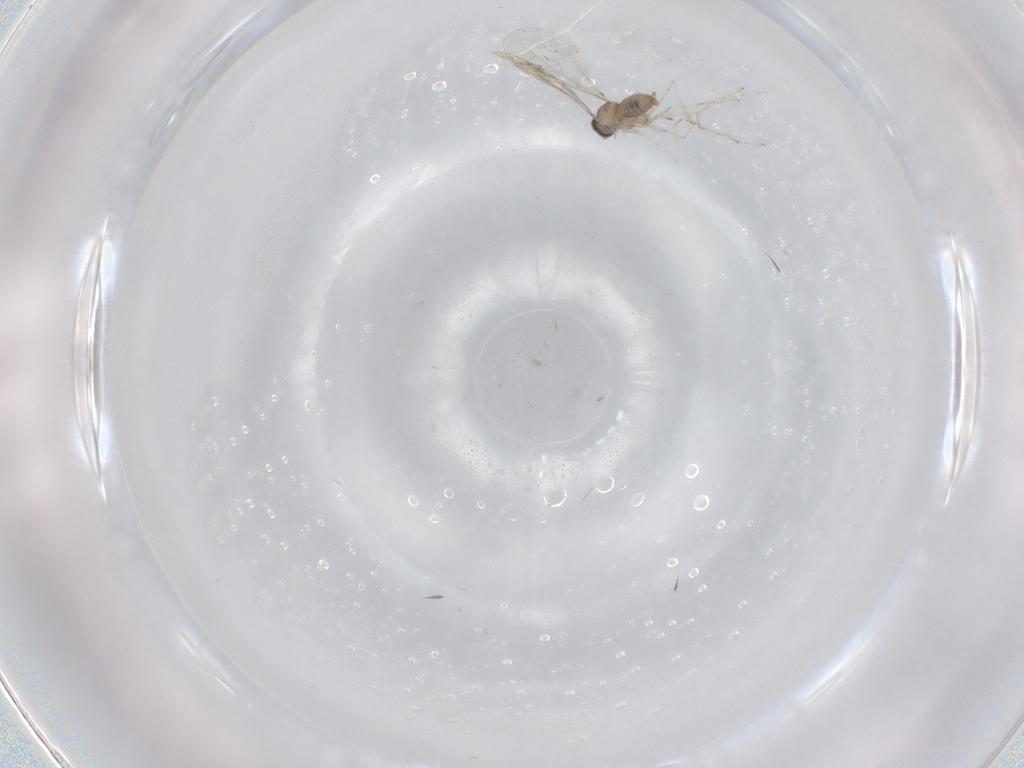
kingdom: Animalia
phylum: Arthropoda
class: Insecta
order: Diptera
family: Cecidomyiidae
